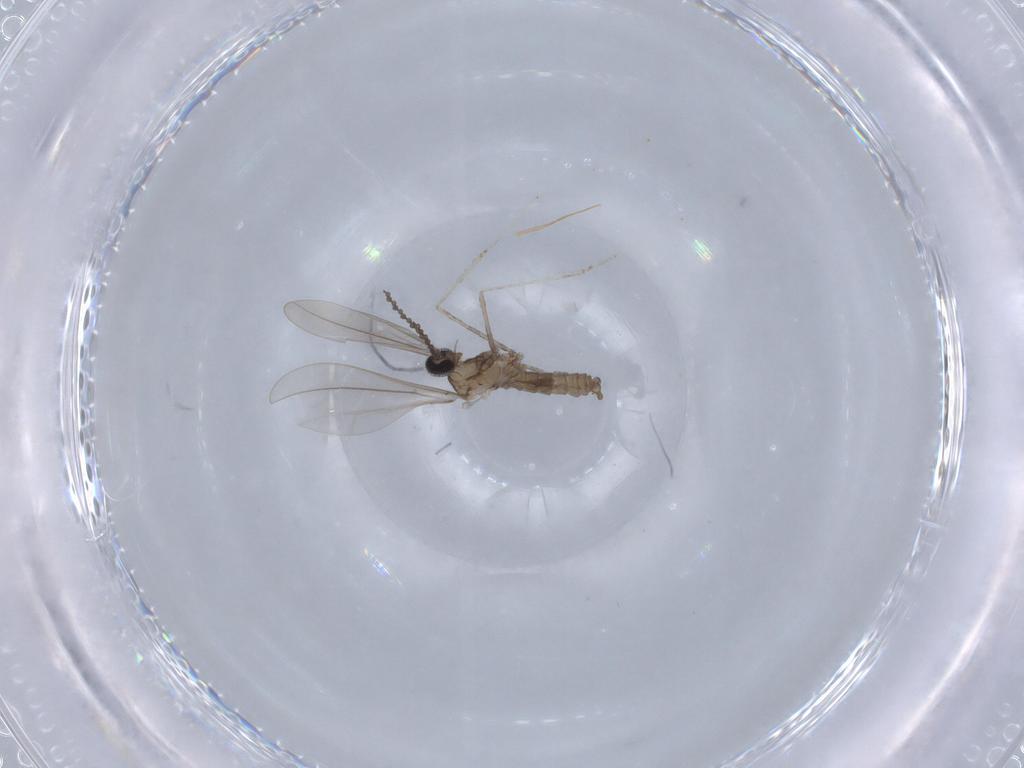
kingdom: Animalia
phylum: Arthropoda
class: Insecta
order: Diptera
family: Cecidomyiidae
